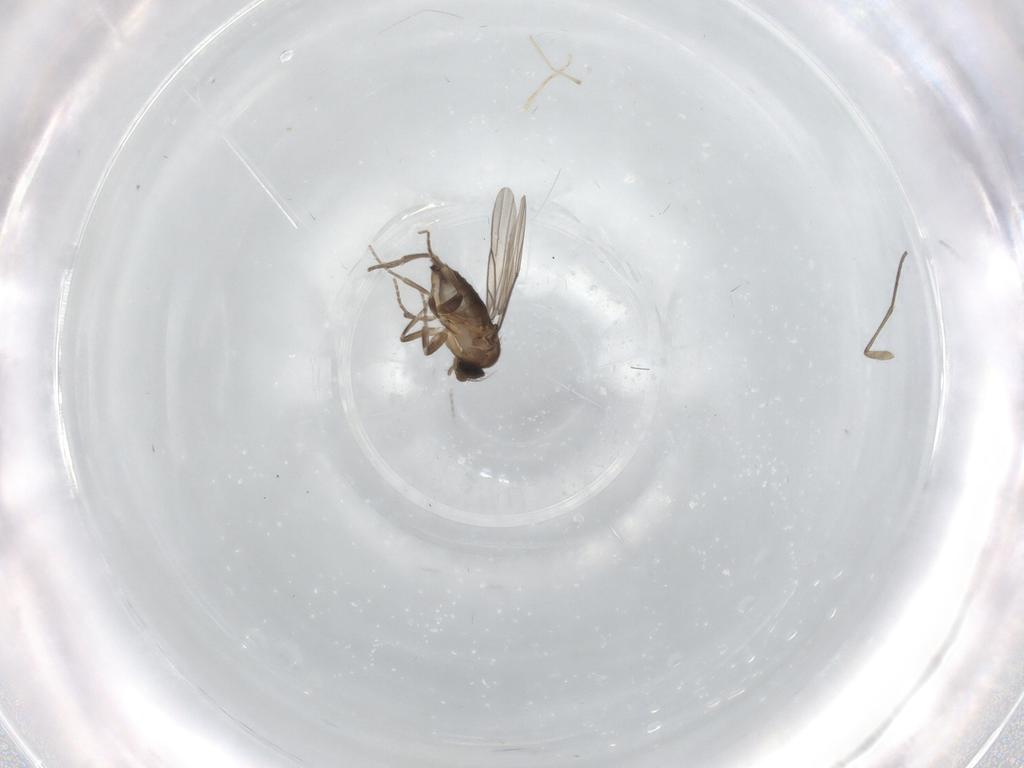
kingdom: Animalia
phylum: Arthropoda
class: Insecta
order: Diptera
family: Sciaridae
